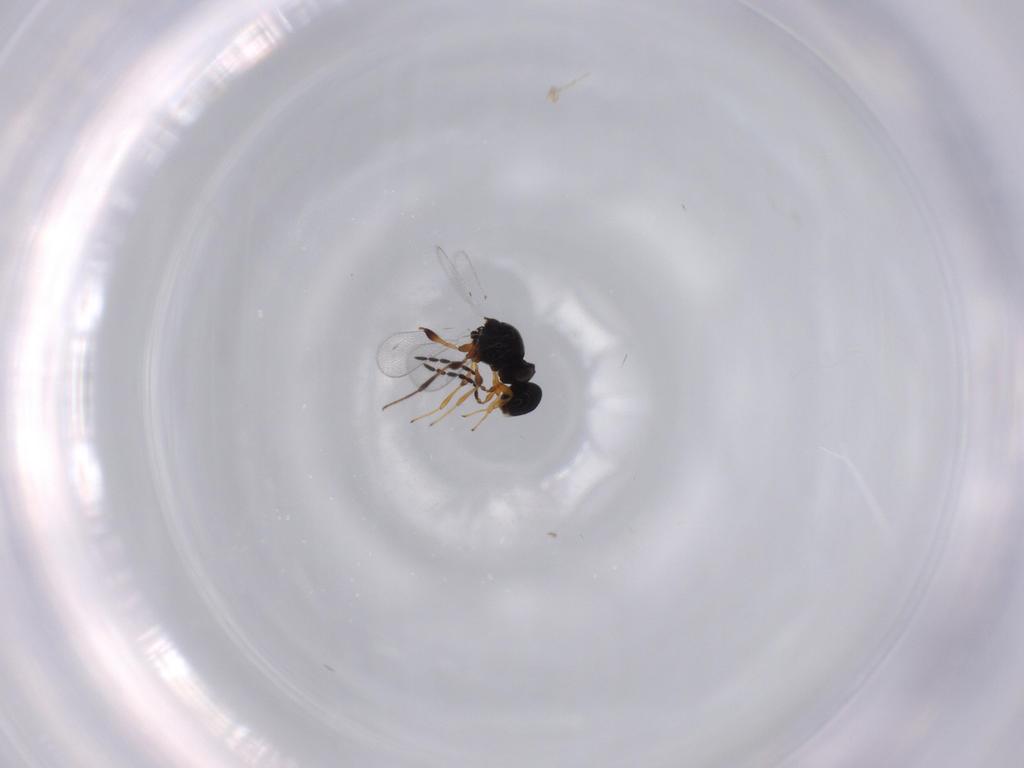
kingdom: Animalia
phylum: Arthropoda
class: Insecta
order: Hymenoptera
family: Platygastridae
